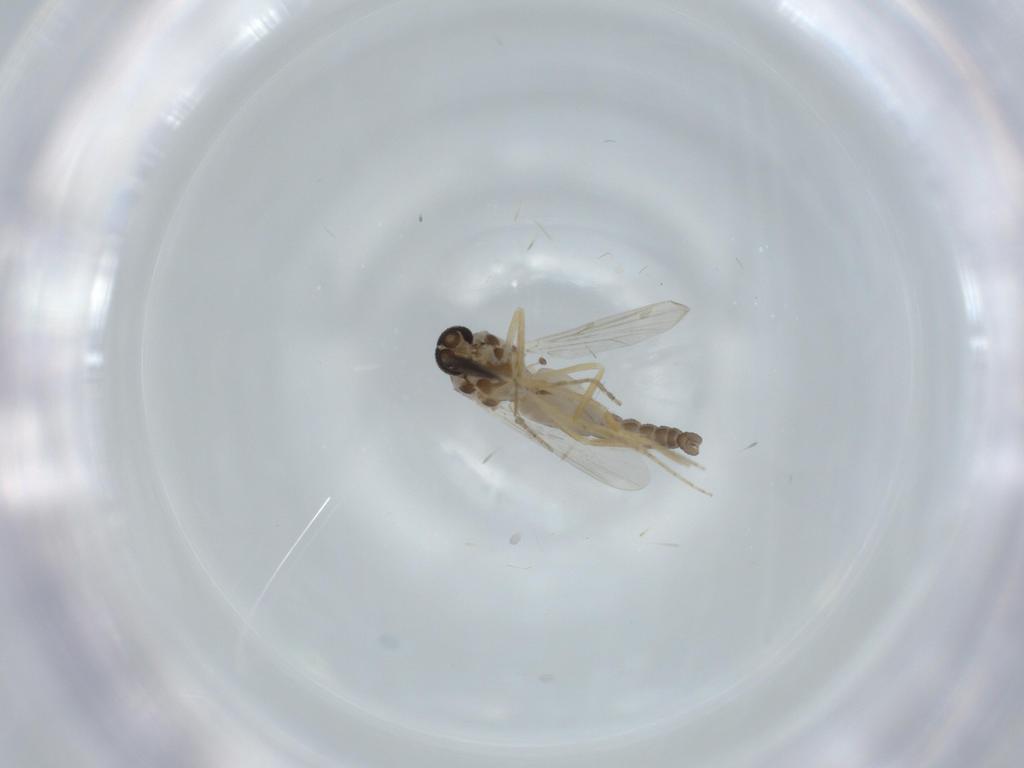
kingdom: Animalia
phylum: Arthropoda
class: Insecta
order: Diptera
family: Ceratopogonidae
